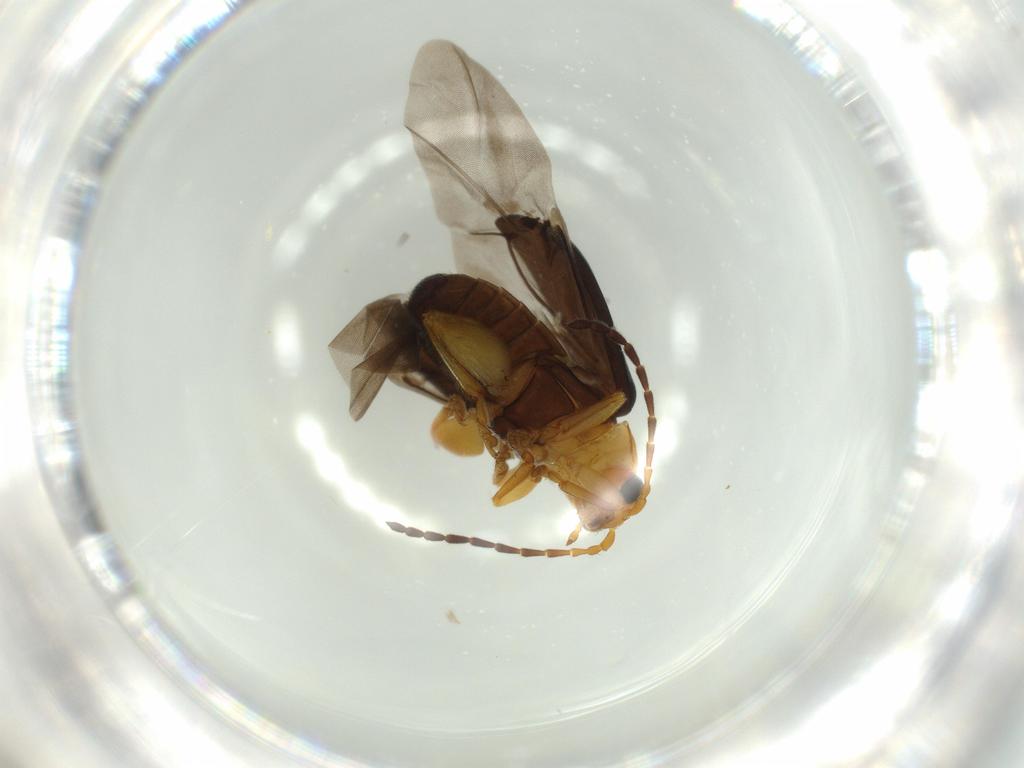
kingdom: Animalia
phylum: Arthropoda
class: Insecta
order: Coleoptera
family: Chrysomelidae
